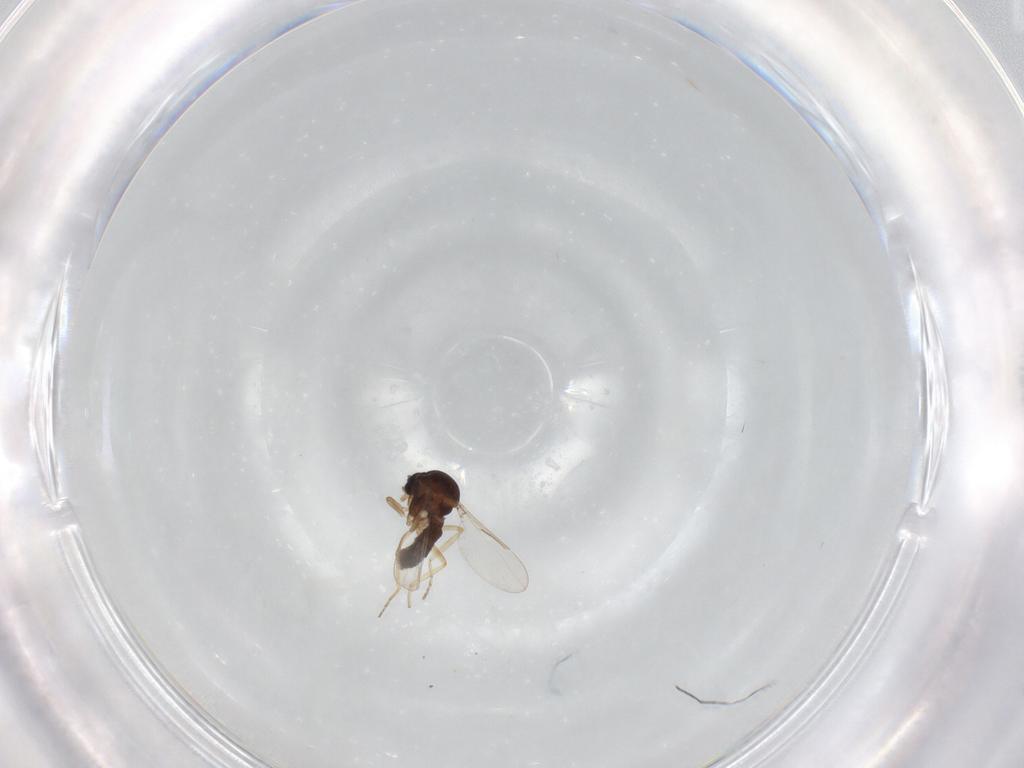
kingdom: Animalia
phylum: Arthropoda
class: Insecta
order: Diptera
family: Ceratopogonidae
